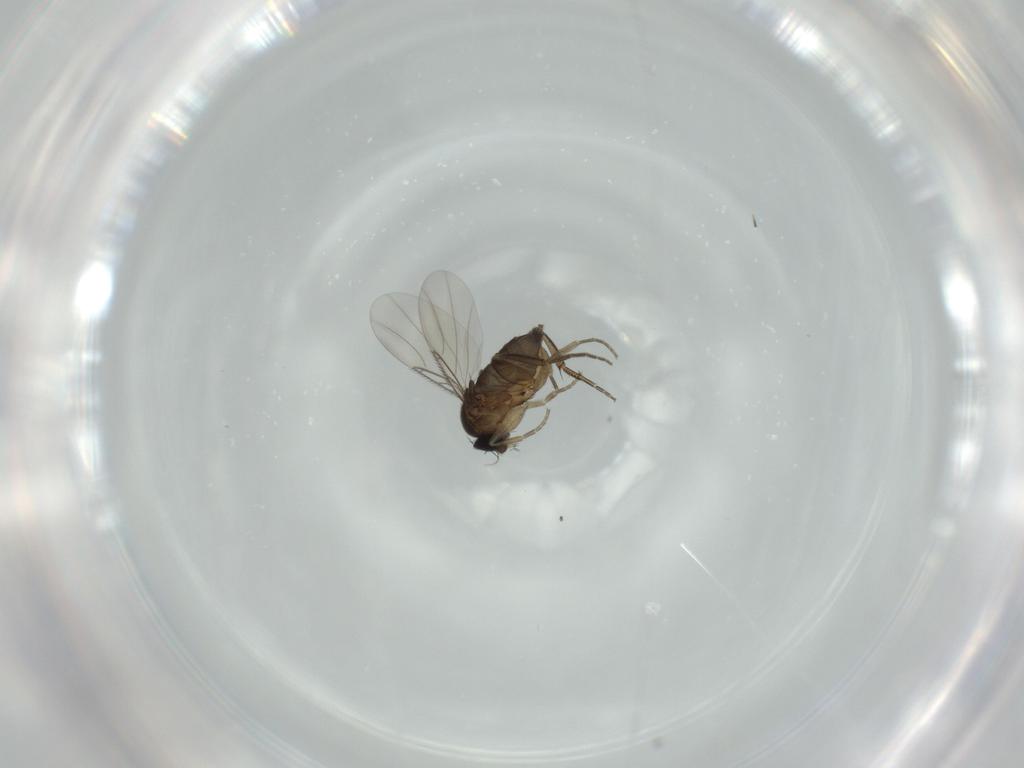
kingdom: Animalia
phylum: Arthropoda
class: Insecta
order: Diptera
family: Phoridae
